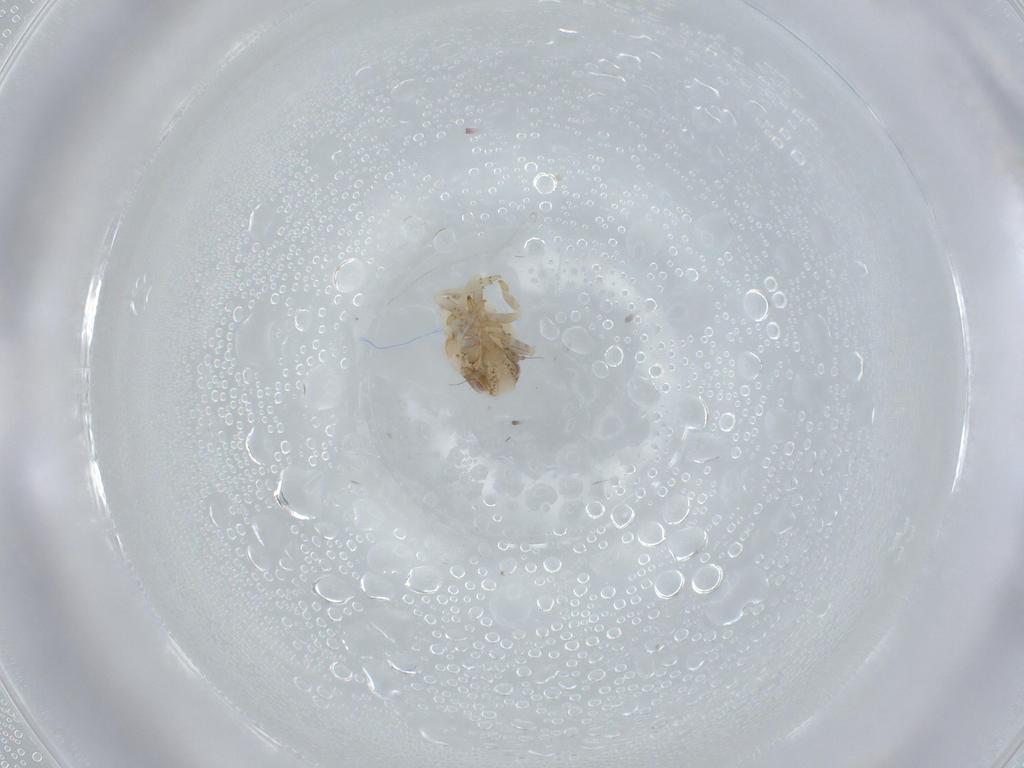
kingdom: Animalia
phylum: Arthropoda
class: Insecta
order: Hemiptera
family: Acanaloniidae
